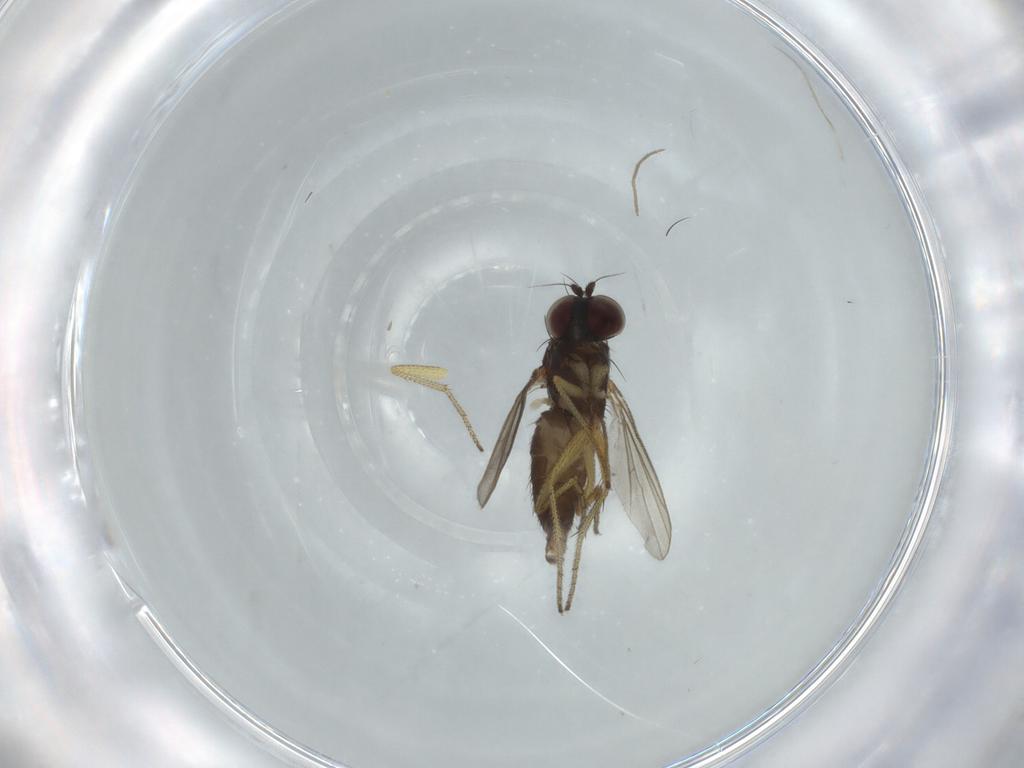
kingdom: Animalia
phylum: Arthropoda
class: Insecta
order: Diptera
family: Dolichopodidae
